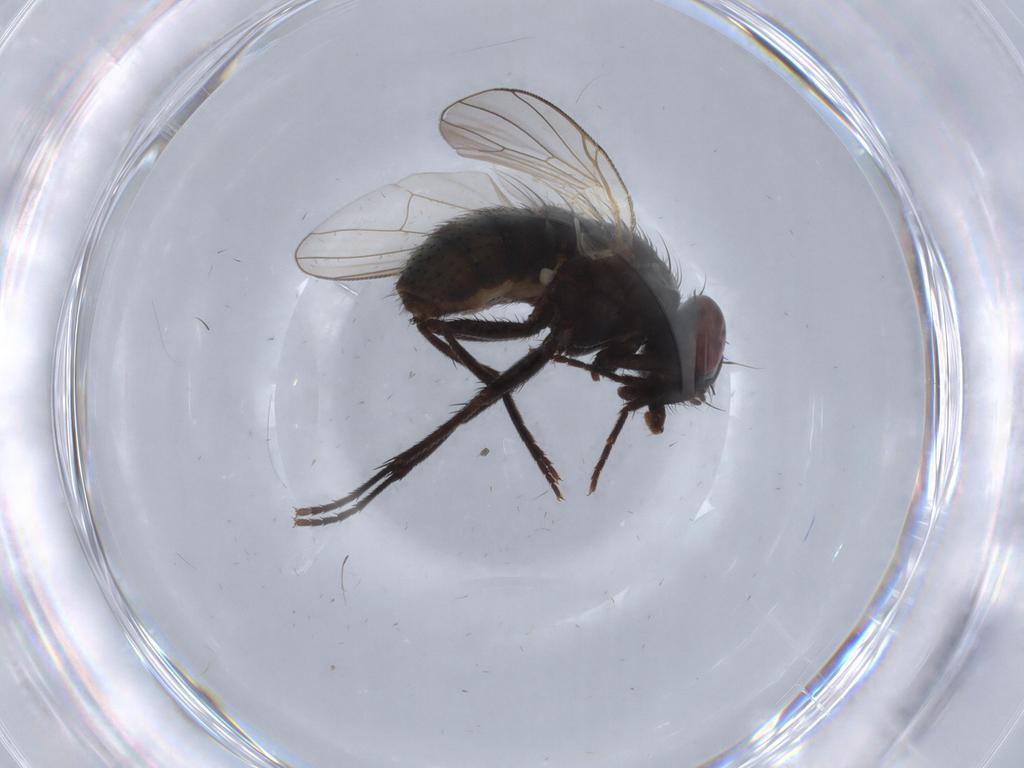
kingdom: Animalia
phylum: Arthropoda
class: Insecta
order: Diptera
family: Muscidae
